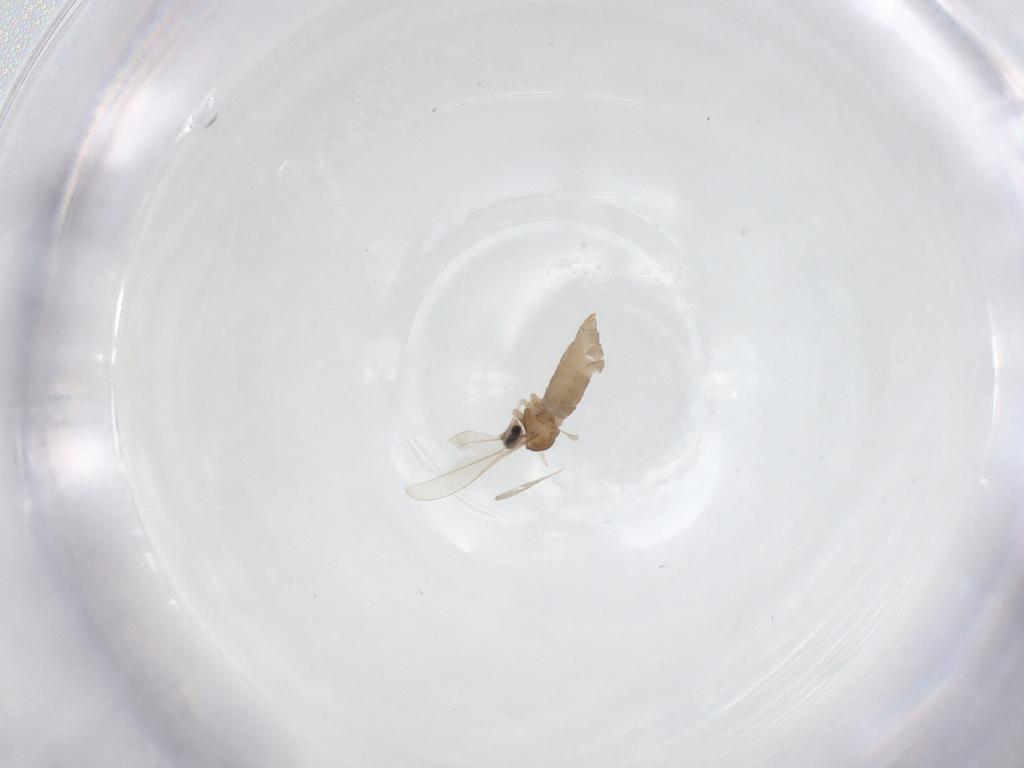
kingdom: Animalia
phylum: Arthropoda
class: Insecta
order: Diptera
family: Cecidomyiidae
